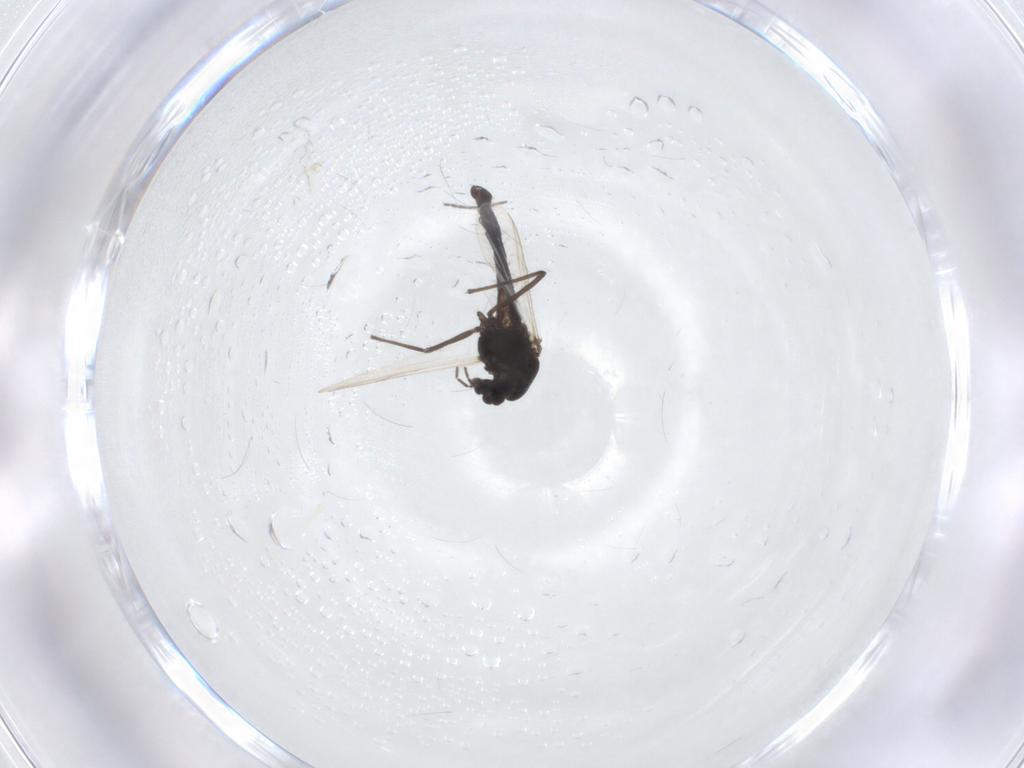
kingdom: Animalia
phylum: Arthropoda
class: Insecta
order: Diptera
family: Chironomidae
